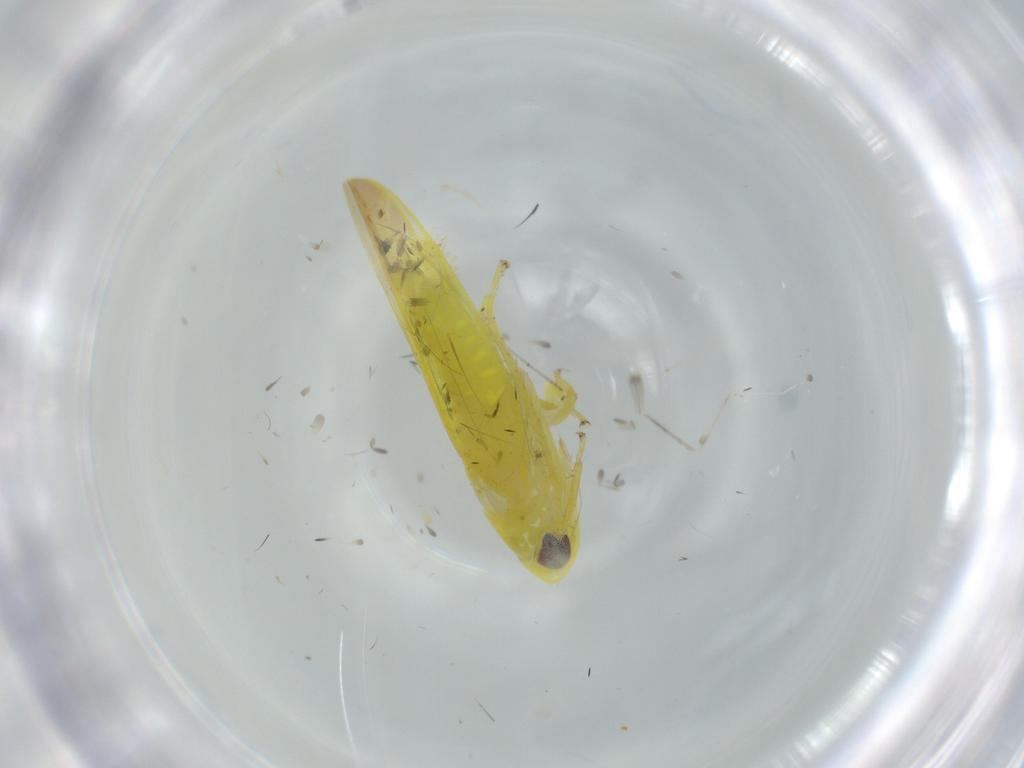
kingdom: Animalia
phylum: Arthropoda
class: Insecta
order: Hemiptera
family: Cicadellidae
